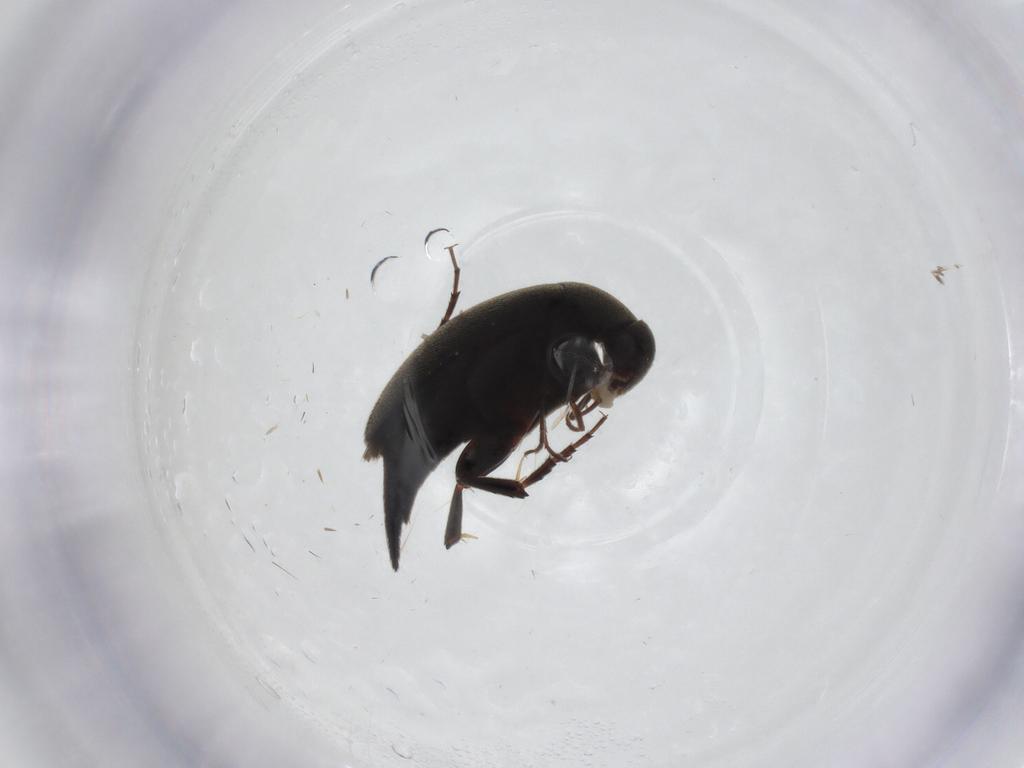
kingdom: Animalia
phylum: Arthropoda
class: Insecta
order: Coleoptera
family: Mordellidae
